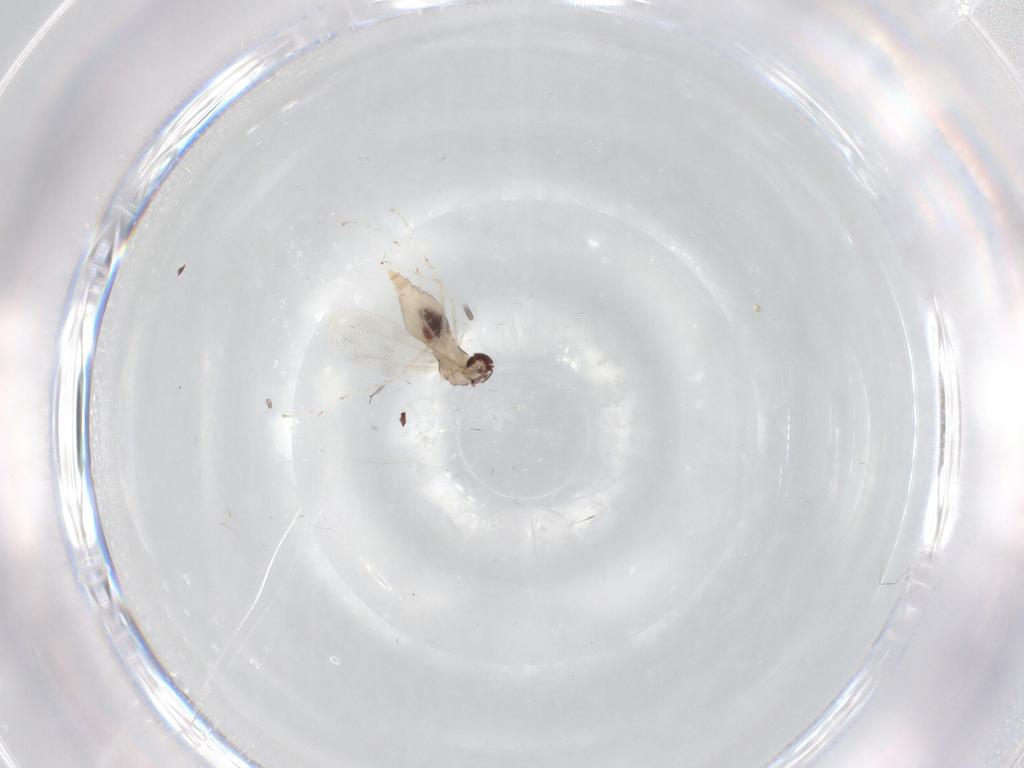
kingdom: Animalia
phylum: Arthropoda
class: Insecta
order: Diptera
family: Cecidomyiidae
